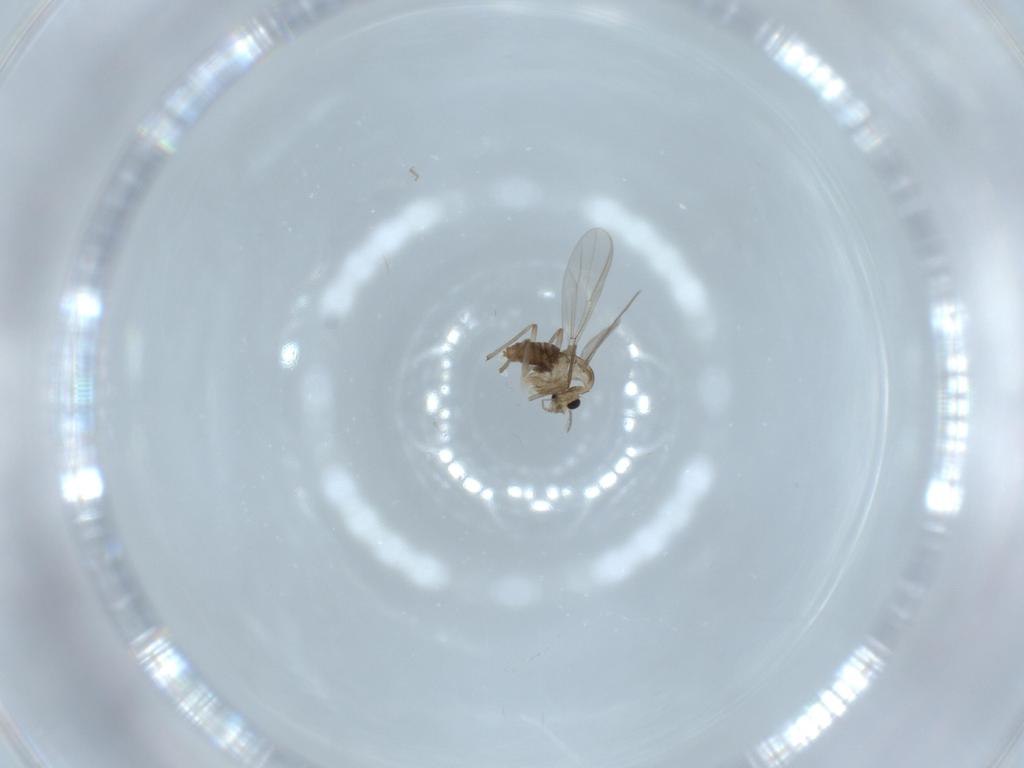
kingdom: Animalia
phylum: Arthropoda
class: Insecta
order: Diptera
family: Chironomidae
